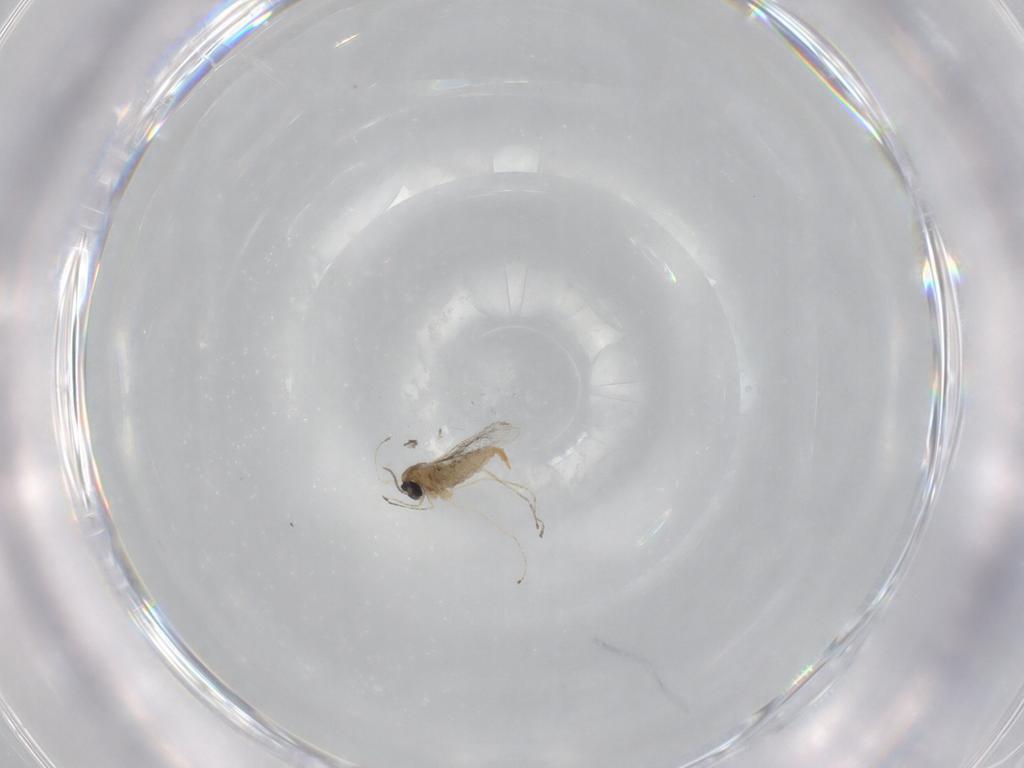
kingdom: Animalia
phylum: Arthropoda
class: Insecta
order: Diptera
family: Cecidomyiidae
